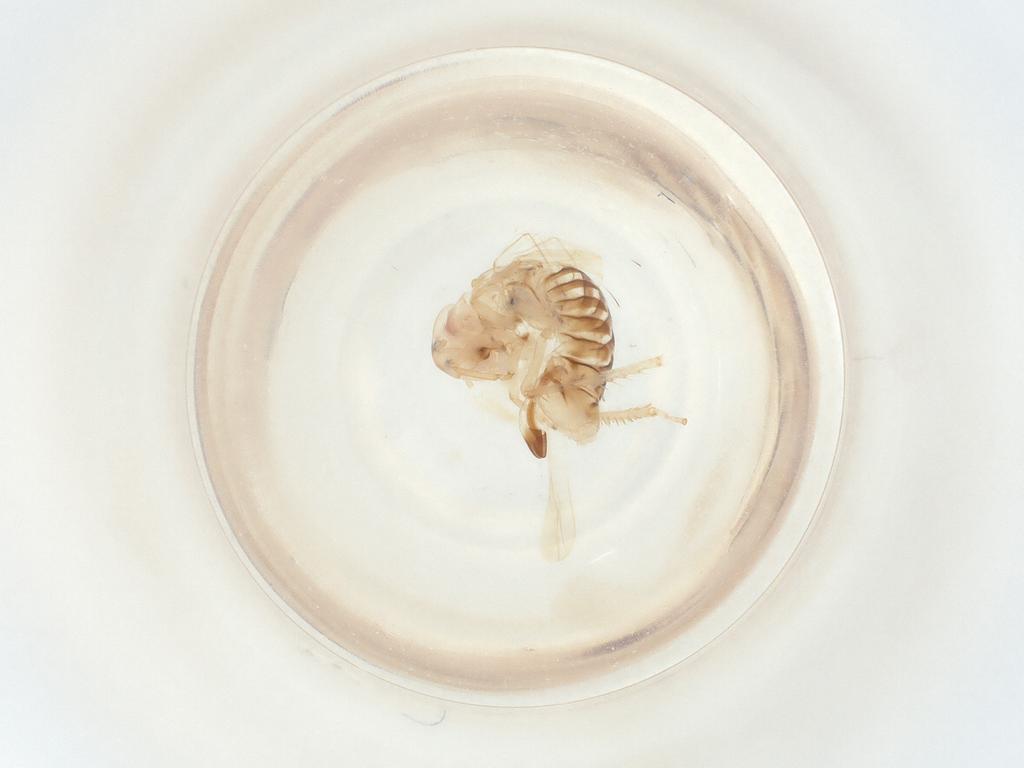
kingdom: Animalia
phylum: Arthropoda
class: Insecta
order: Hemiptera
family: Cicadellidae
